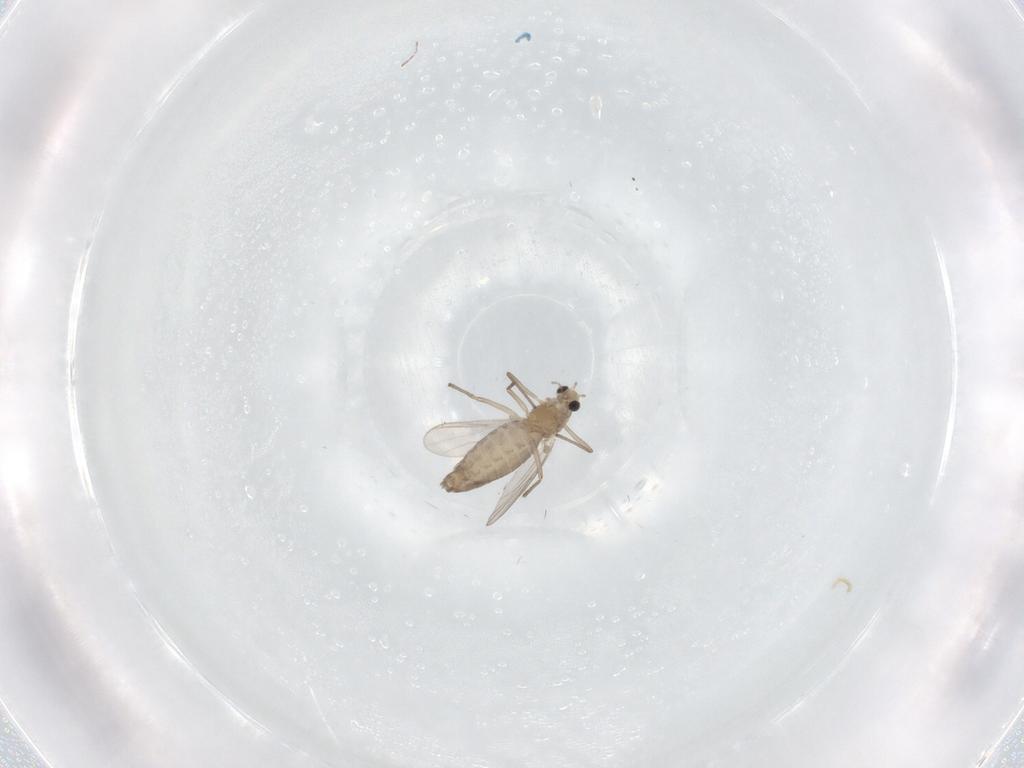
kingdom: Animalia
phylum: Arthropoda
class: Insecta
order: Diptera
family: Chironomidae
